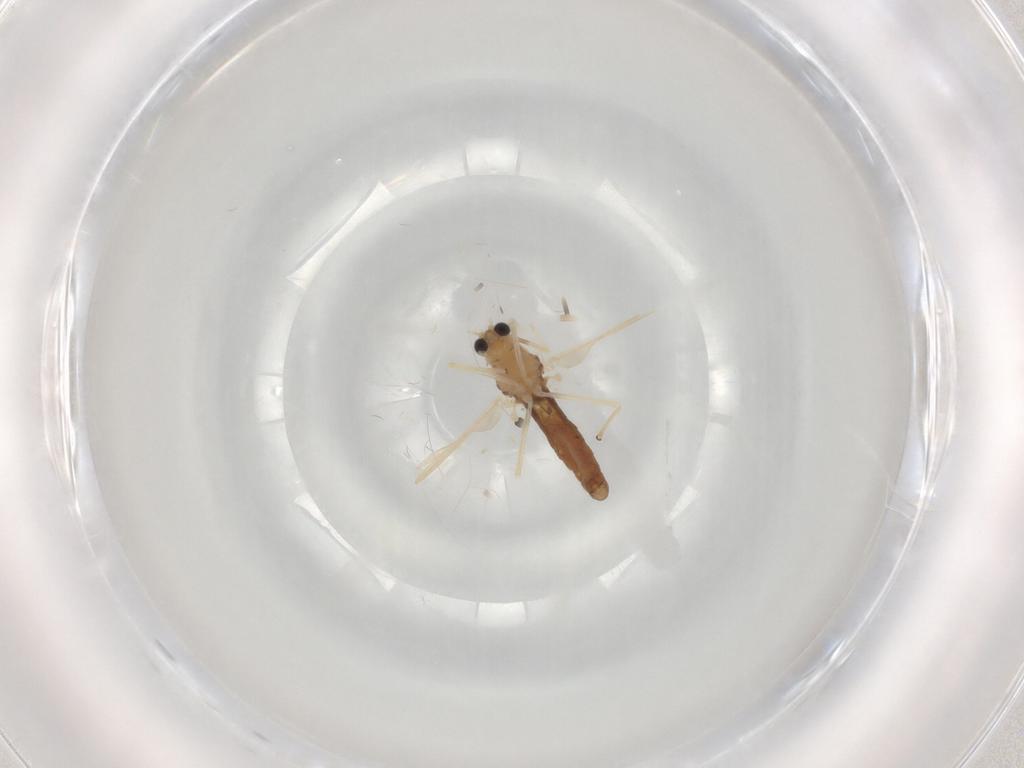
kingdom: Animalia
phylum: Arthropoda
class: Insecta
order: Diptera
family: Chironomidae
